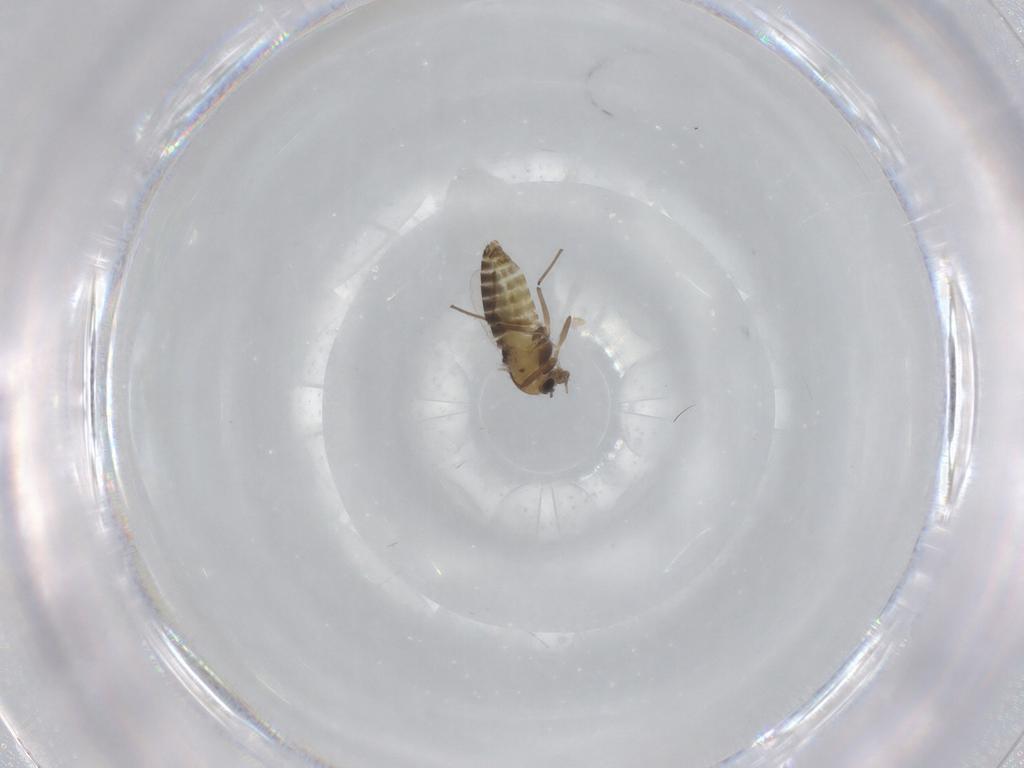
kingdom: Animalia
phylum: Arthropoda
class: Insecta
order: Diptera
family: Chironomidae
